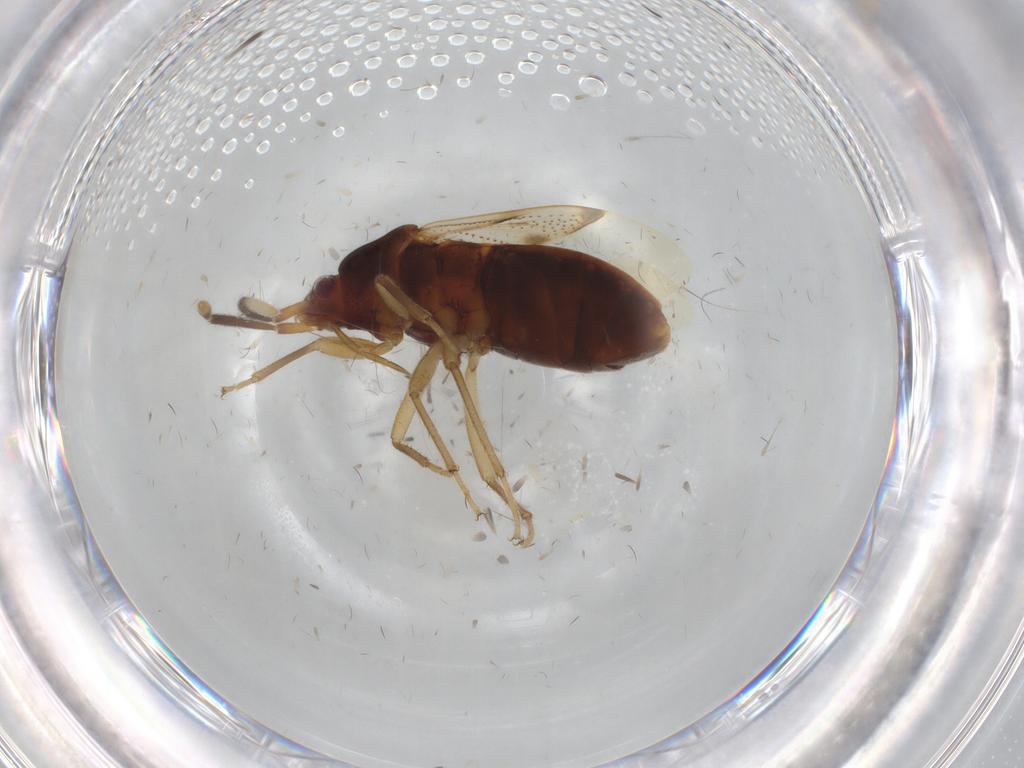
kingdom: Animalia
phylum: Arthropoda
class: Insecta
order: Hemiptera
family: Rhyparochromidae
